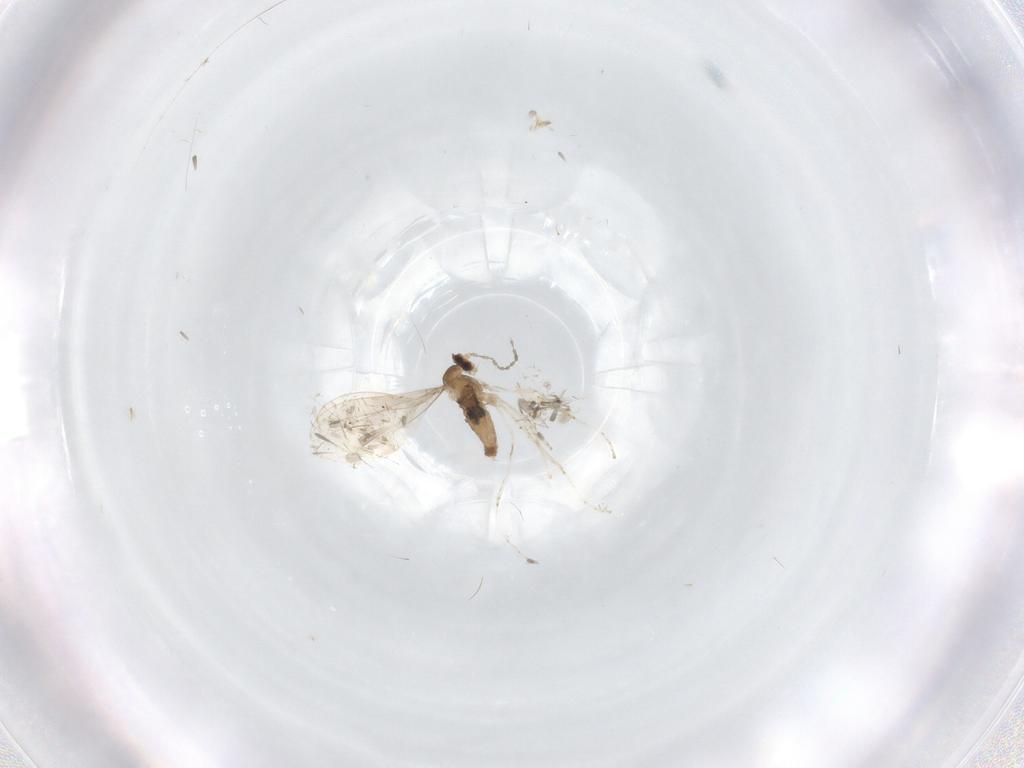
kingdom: Animalia
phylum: Arthropoda
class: Insecta
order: Diptera
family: Cecidomyiidae
